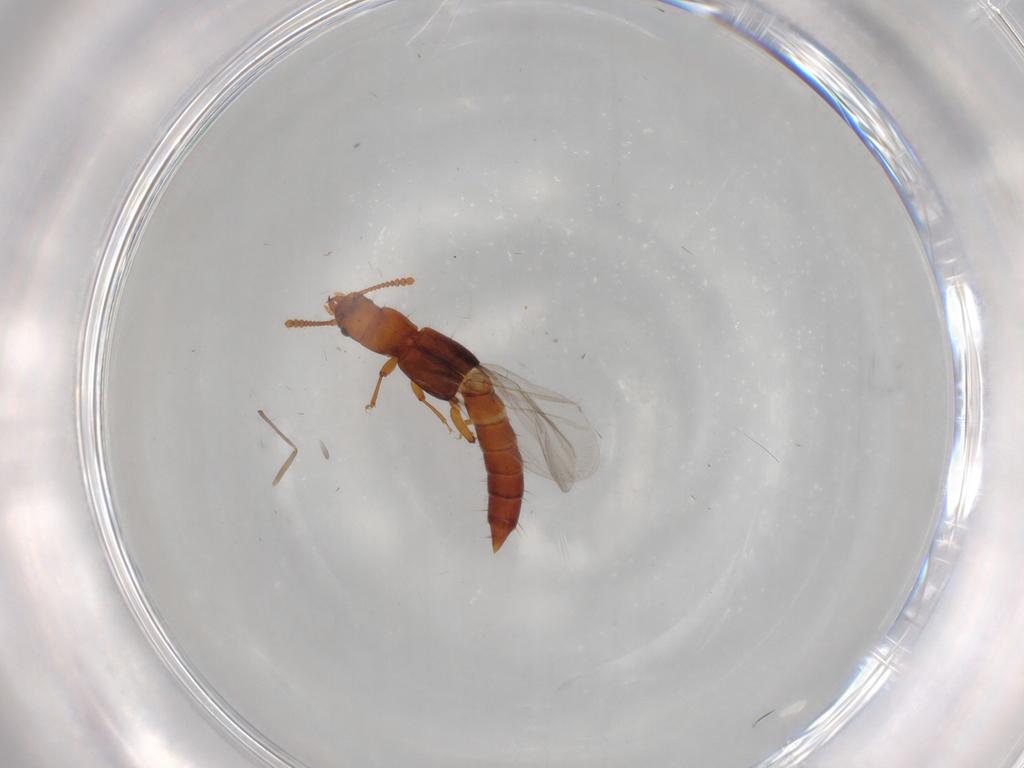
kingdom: Animalia
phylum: Arthropoda
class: Insecta
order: Coleoptera
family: Staphylinidae
